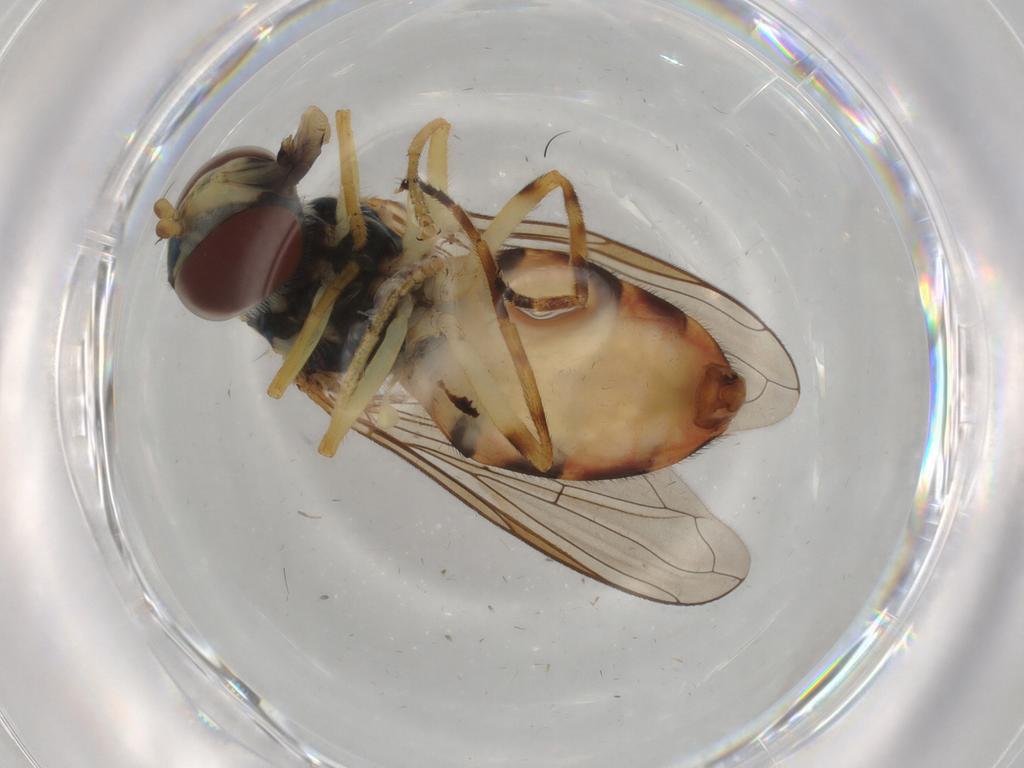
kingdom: Animalia
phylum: Arthropoda
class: Insecta
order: Diptera
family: Syrphidae
